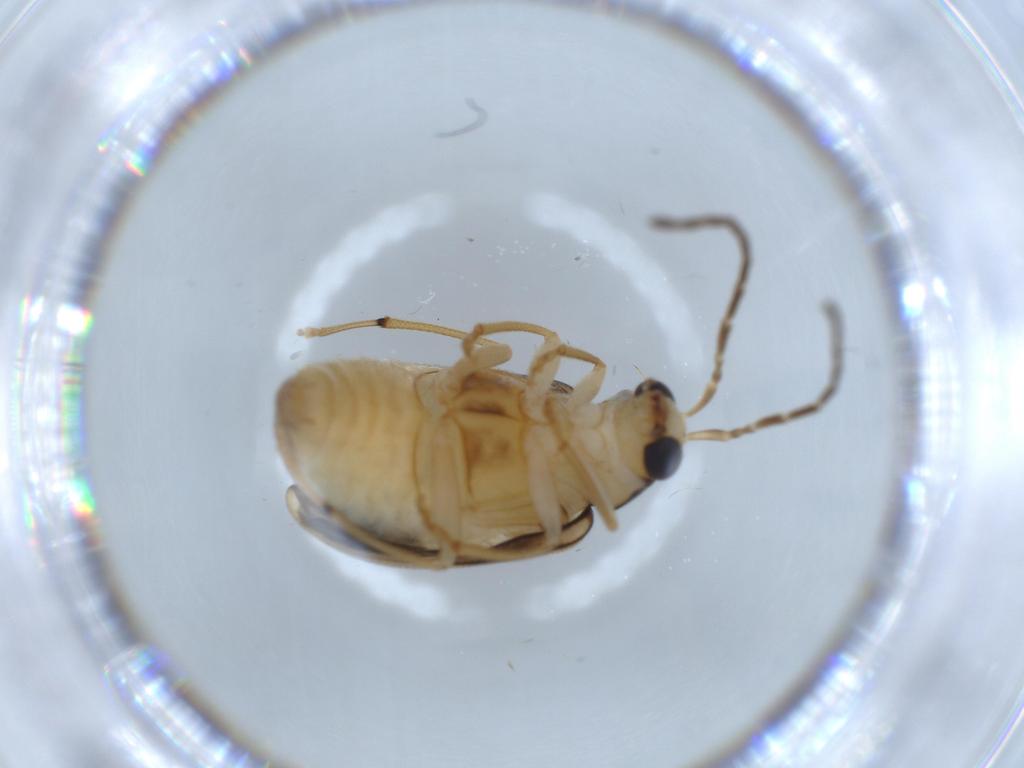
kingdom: Animalia
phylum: Arthropoda
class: Insecta
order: Coleoptera
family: Chrysomelidae
